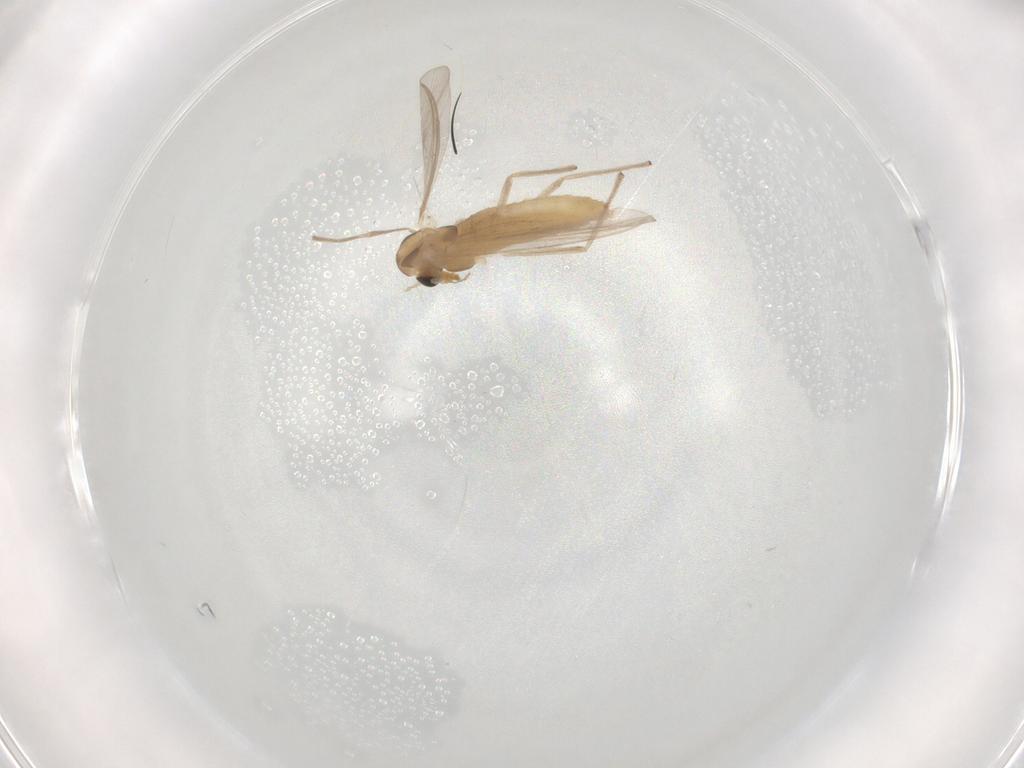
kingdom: Animalia
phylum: Arthropoda
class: Insecta
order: Diptera
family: Chironomidae
